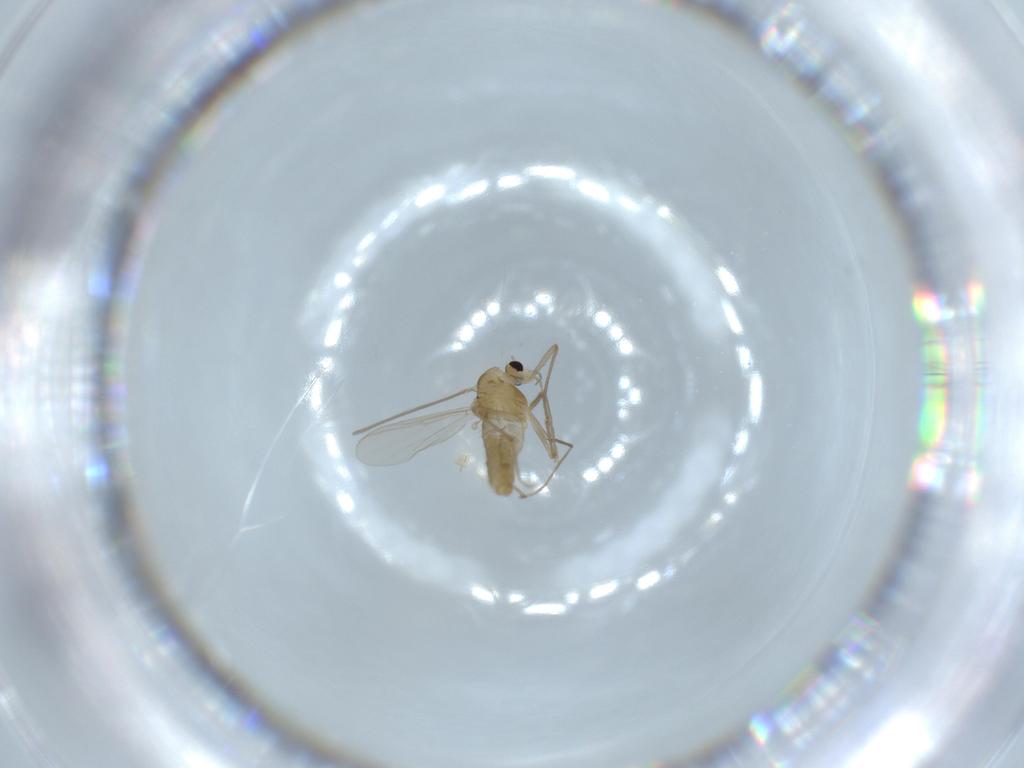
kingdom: Animalia
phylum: Arthropoda
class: Insecta
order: Diptera
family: Chironomidae
